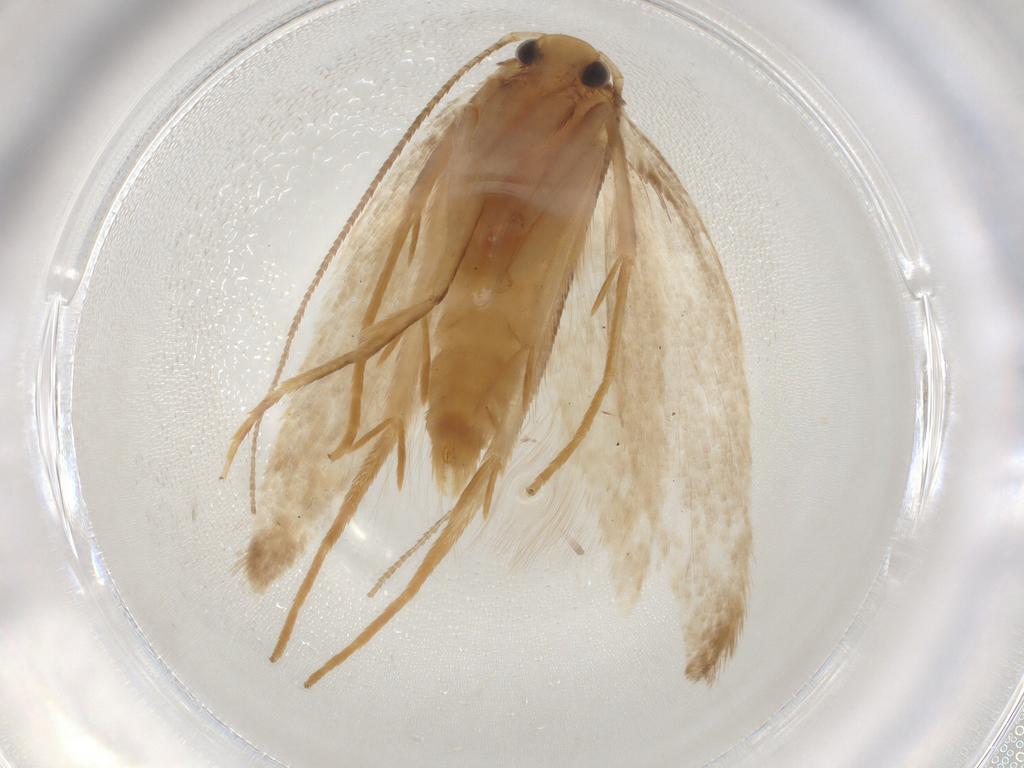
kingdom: Animalia
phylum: Arthropoda
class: Insecta
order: Lepidoptera
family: Oecophoridae
